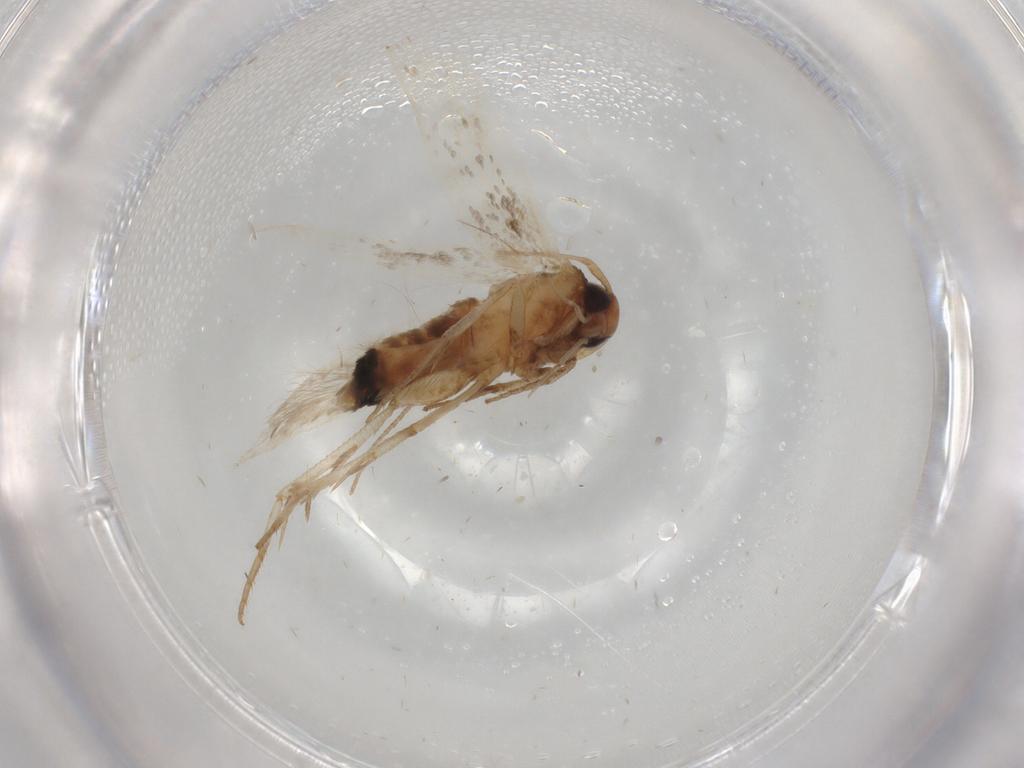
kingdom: Animalia
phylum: Arthropoda
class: Insecta
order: Lepidoptera
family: Cosmopterigidae
